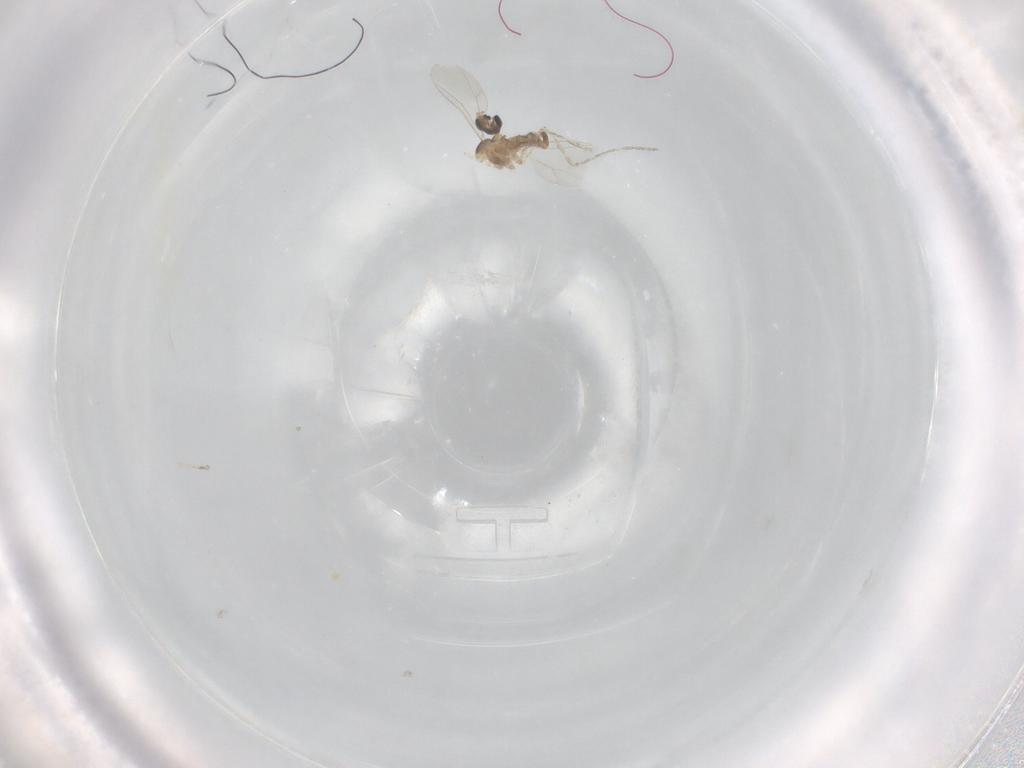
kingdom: Animalia
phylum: Arthropoda
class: Insecta
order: Diptera
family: Cecidomyiidae
